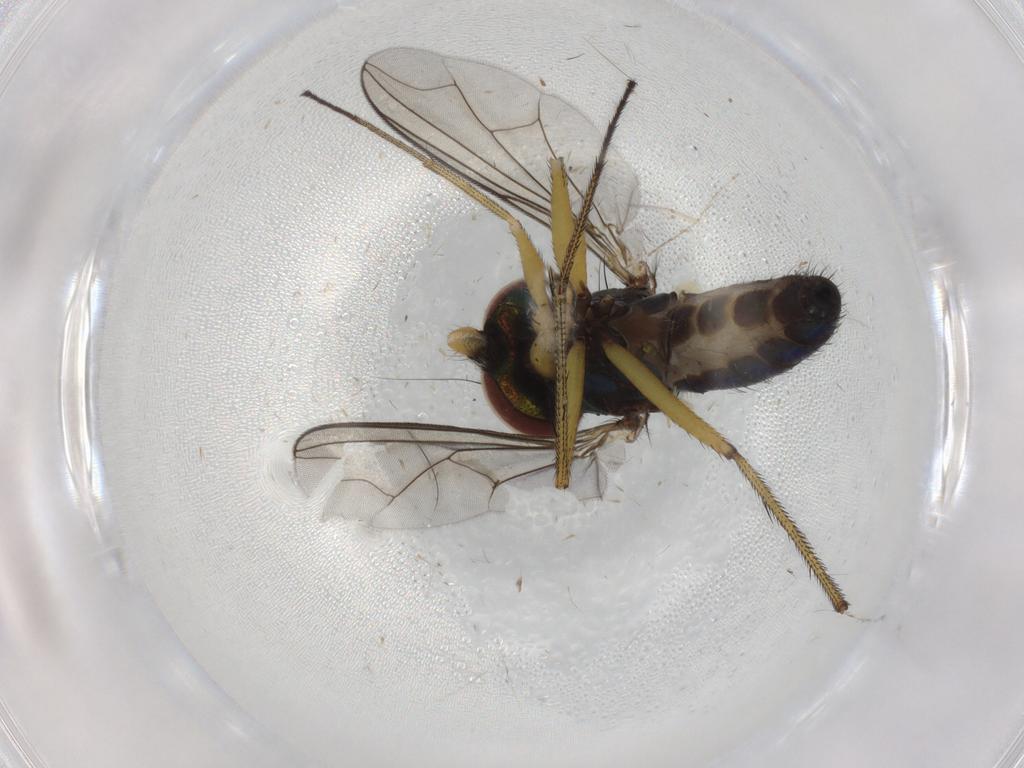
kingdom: Animalia
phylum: Arthropoda
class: Insecta
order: Diptera
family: Dolichopodidae
